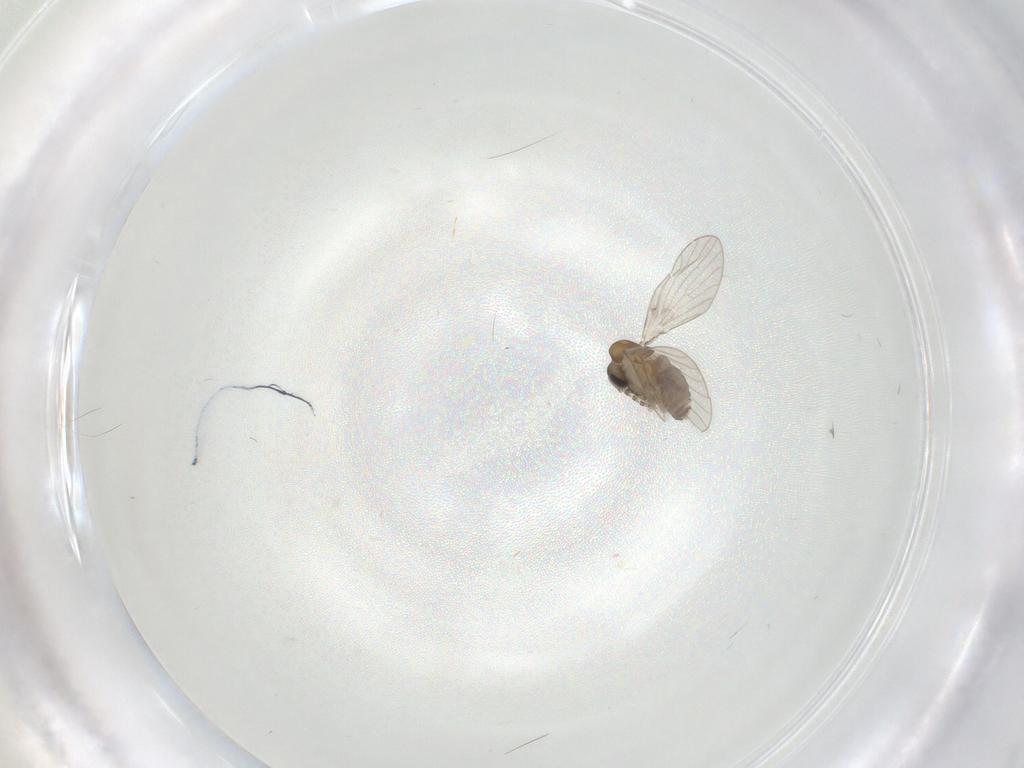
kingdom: Animalia
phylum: Arthropoda
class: Insecta
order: Diptera
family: Psychodidae
